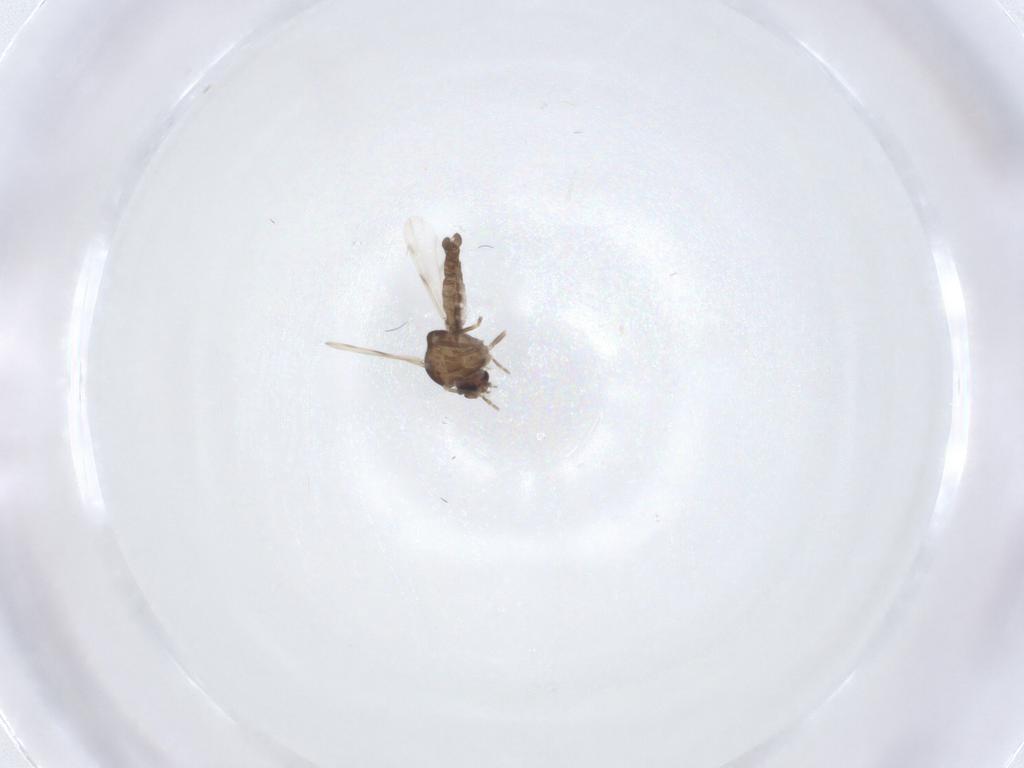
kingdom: Animalia
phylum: Arthropoda
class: Insecta
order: Diptera
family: Ceratopogonidae
